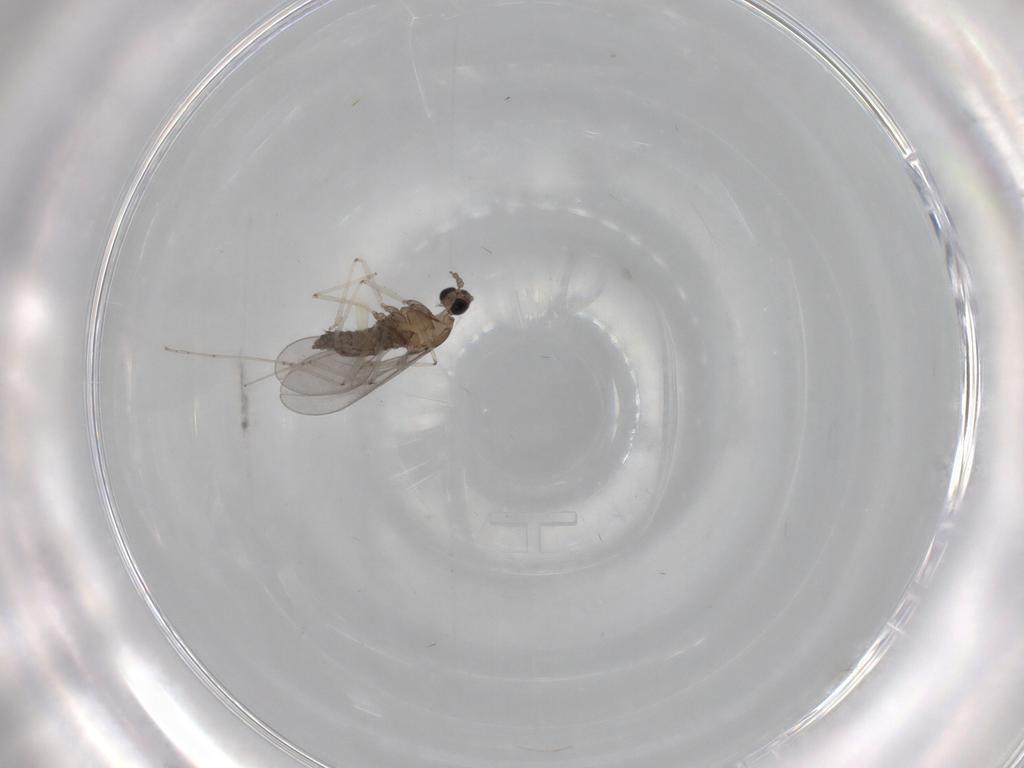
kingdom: Animalia
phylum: Arthropoda
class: Insecta
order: Diptera
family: Cecidomyiidae
